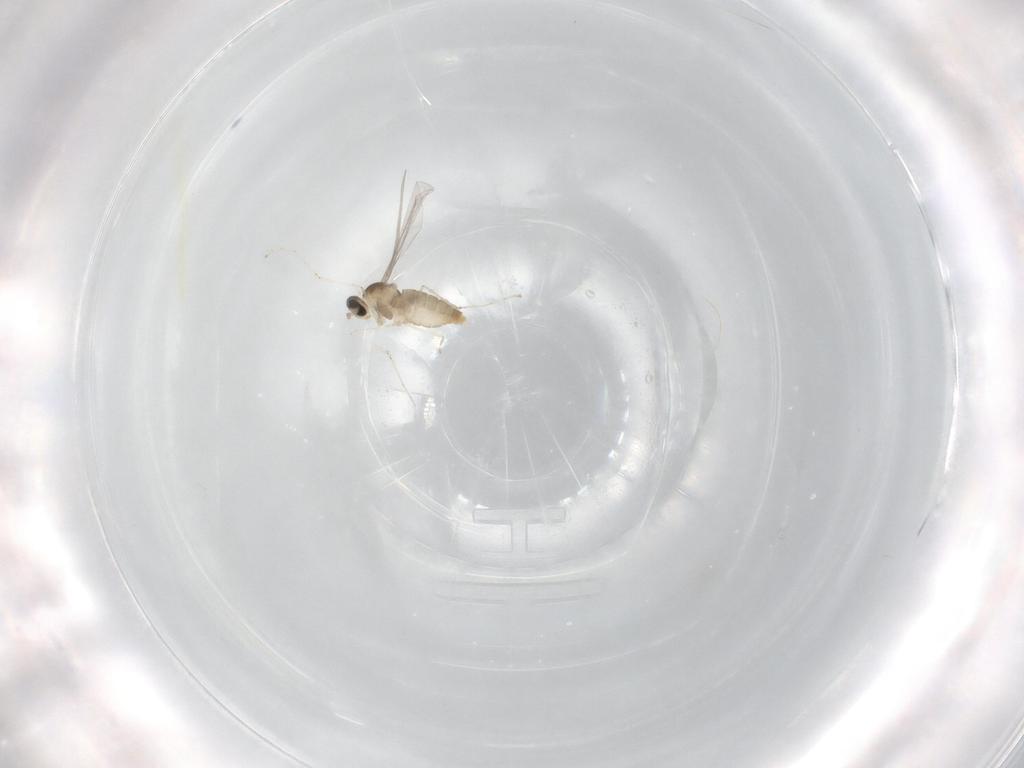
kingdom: Animalia
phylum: Arthropoda
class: Insecta
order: Diptera
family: Cecidomyiidae
